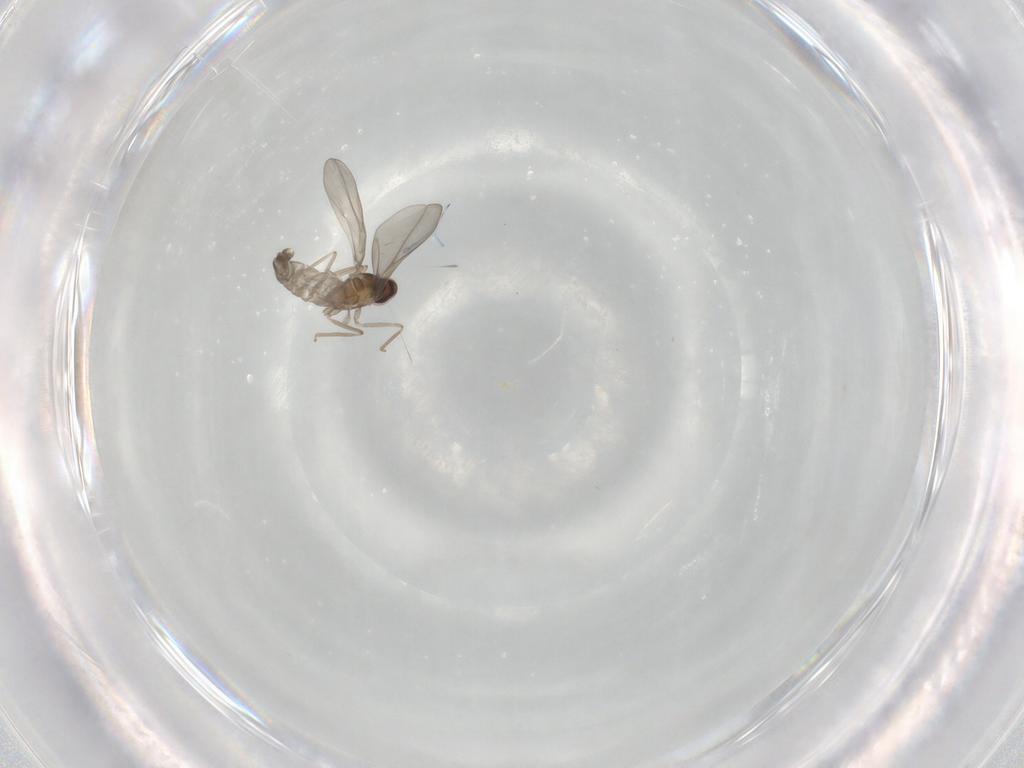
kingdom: Animalia
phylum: Arthropoda
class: Insecta
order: Diptera
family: Cecidomyiidae
